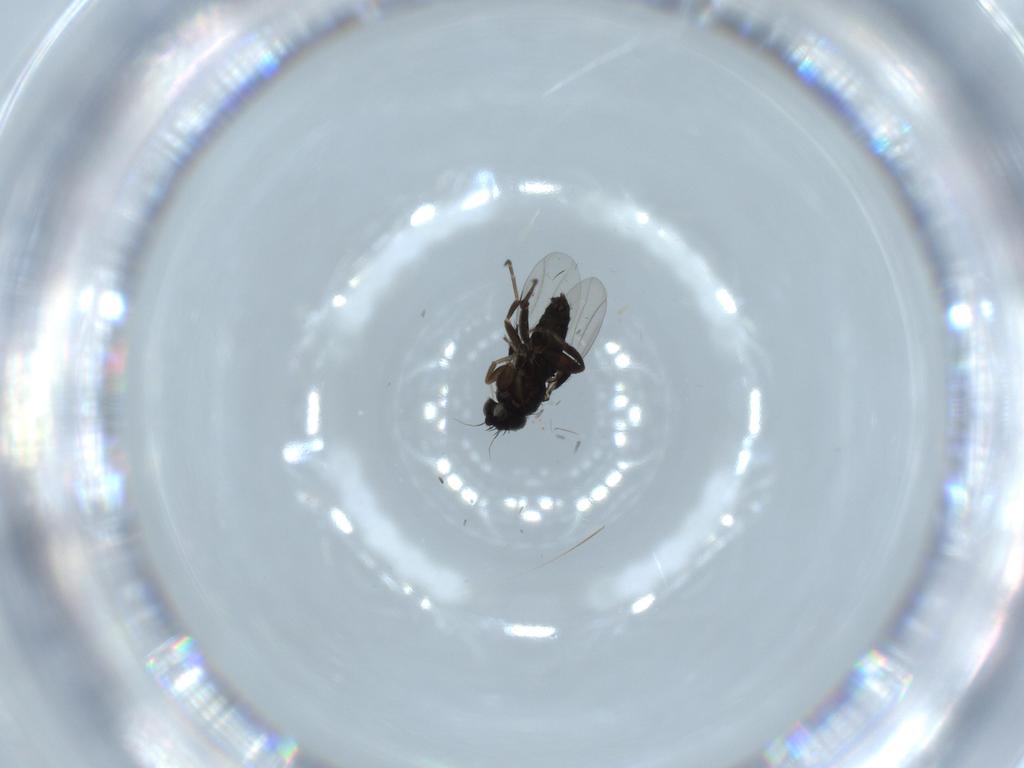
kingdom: Animalia
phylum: Arthropoda
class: Insecta
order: Diptera
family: Phoridae
